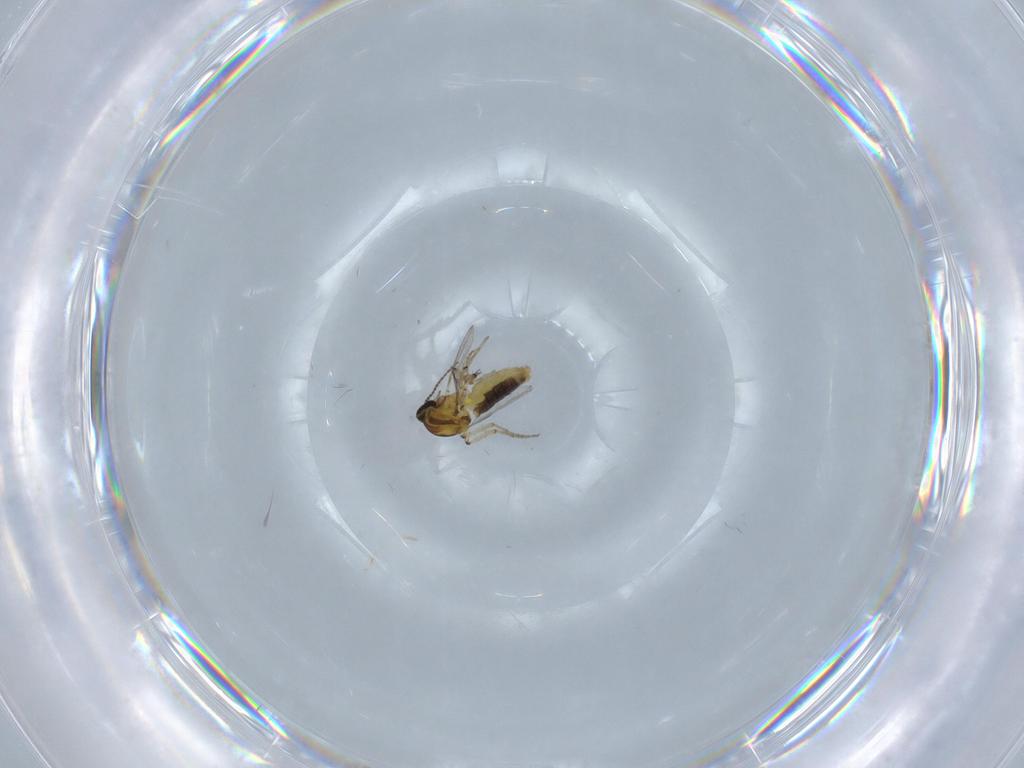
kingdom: Animalia
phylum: Arthropoda
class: Insecta
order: Diptera
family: Ceratopogonidae
